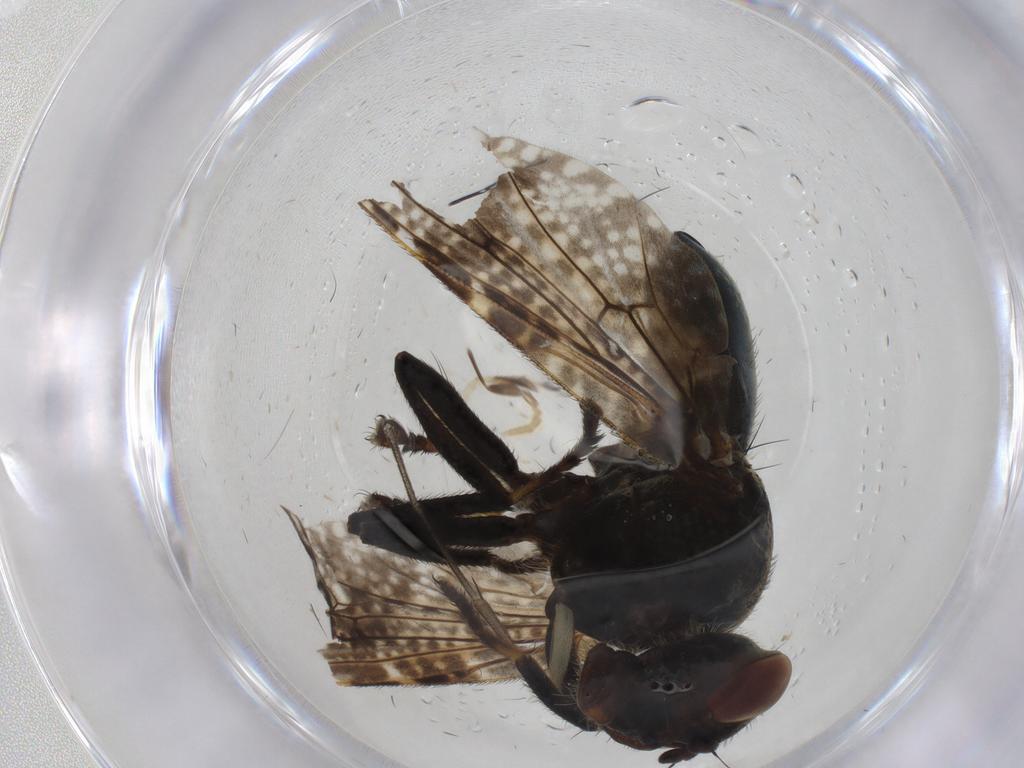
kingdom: Animalia
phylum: Arthropoda
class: Insecta
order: Diptera
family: Platystomatidae
